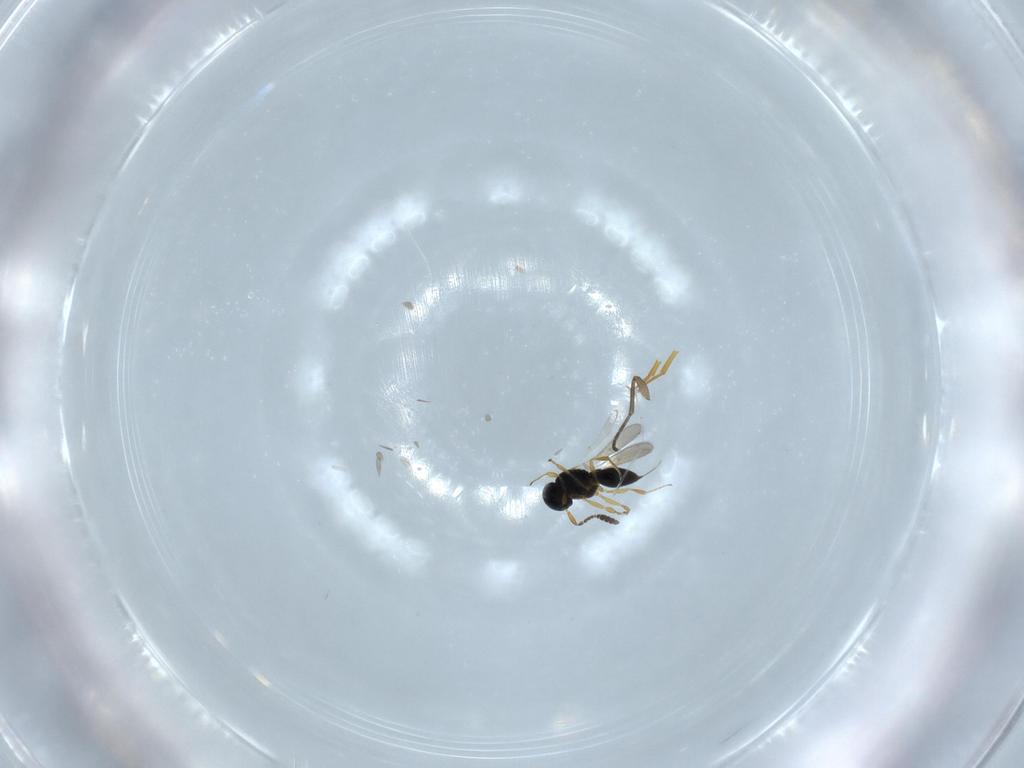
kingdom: Animalia
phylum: Arthropoda
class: Insecta
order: Hymenoptera
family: Scelionidae
